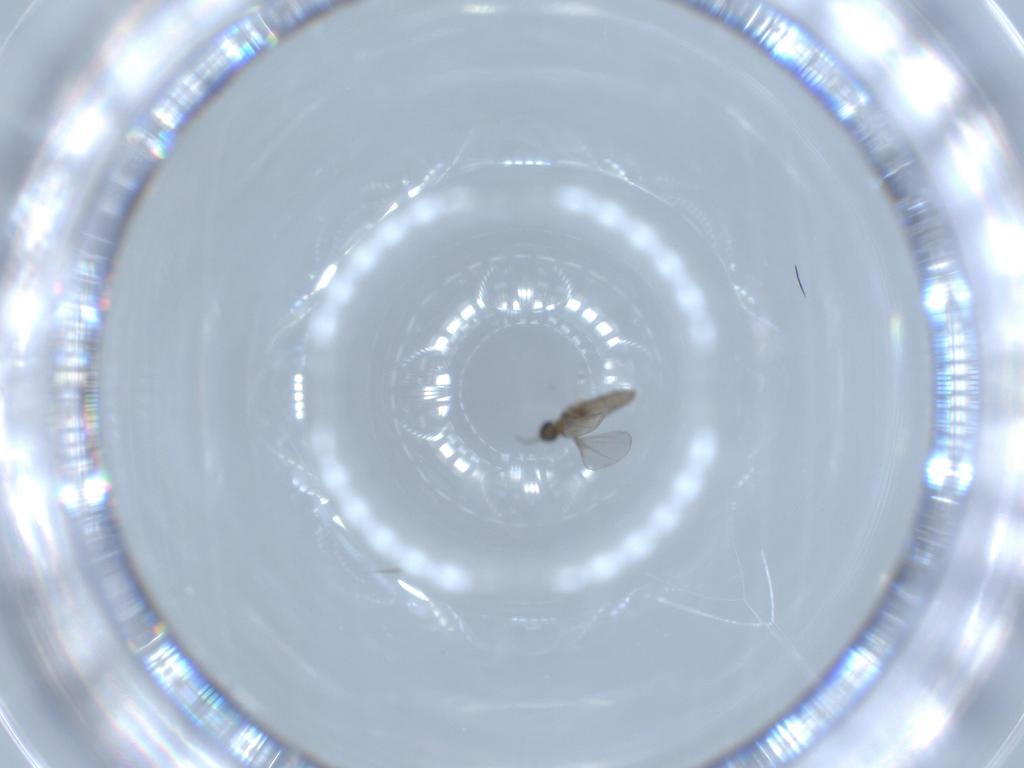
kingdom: Animalia
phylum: Arthropoda
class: Insecta
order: Diptera
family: Cecidomyiidae
